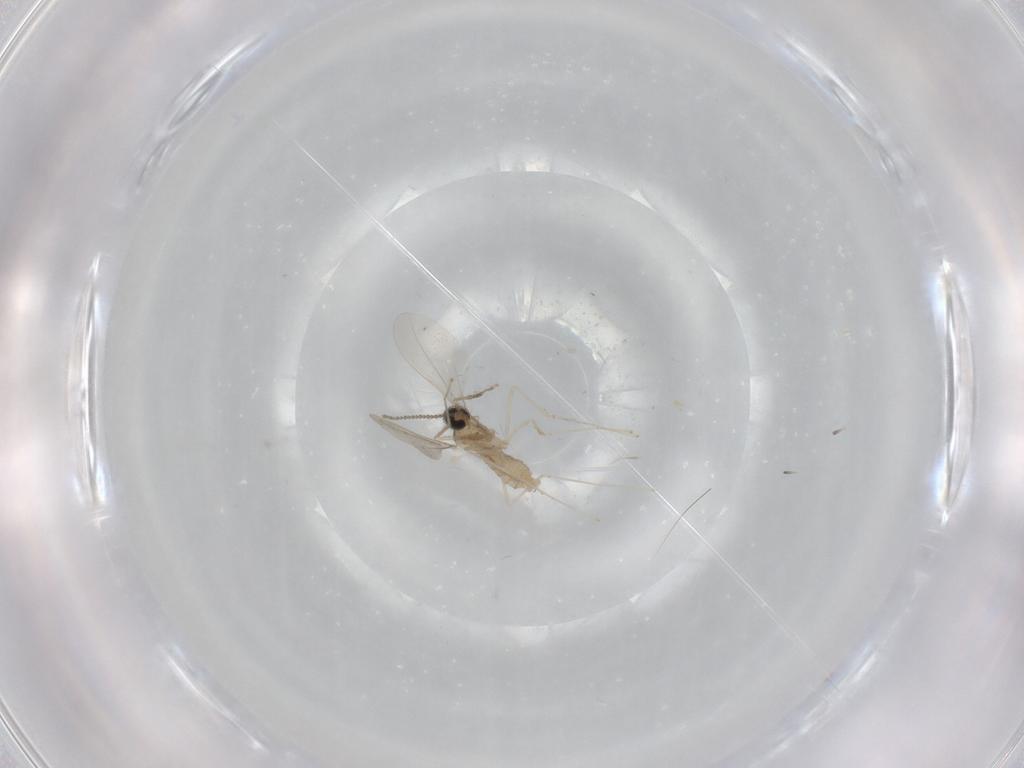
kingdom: Animalia
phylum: Arthropoda
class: Insecta
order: Diptera
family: Cecidomyiidae
